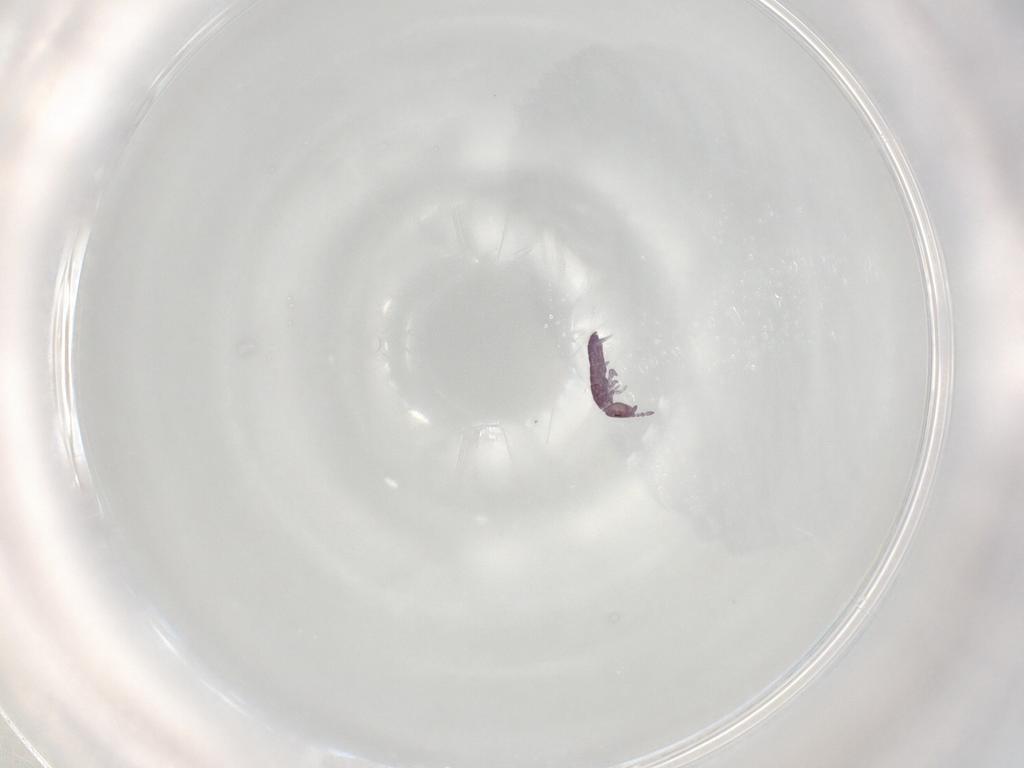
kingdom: Animalia
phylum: Arthropoda
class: Collembola
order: Entomobryomorpha
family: Isotomidae
